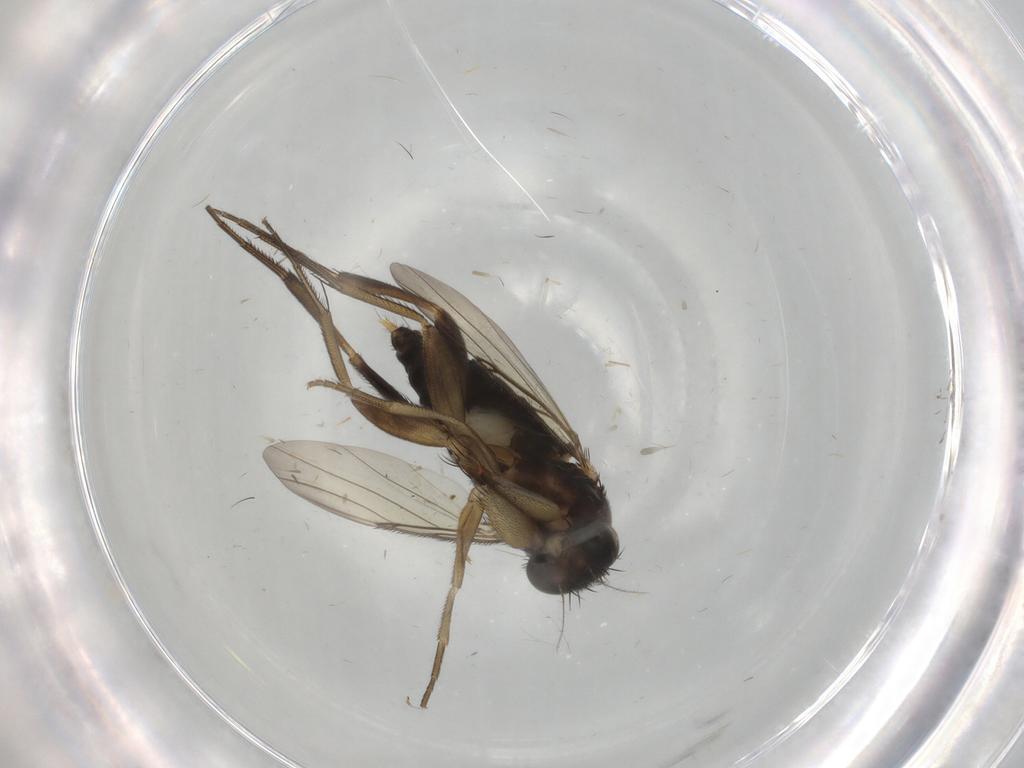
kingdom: Animalia
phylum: Arthropoda
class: Insecta
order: Diptera
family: Phoridae
